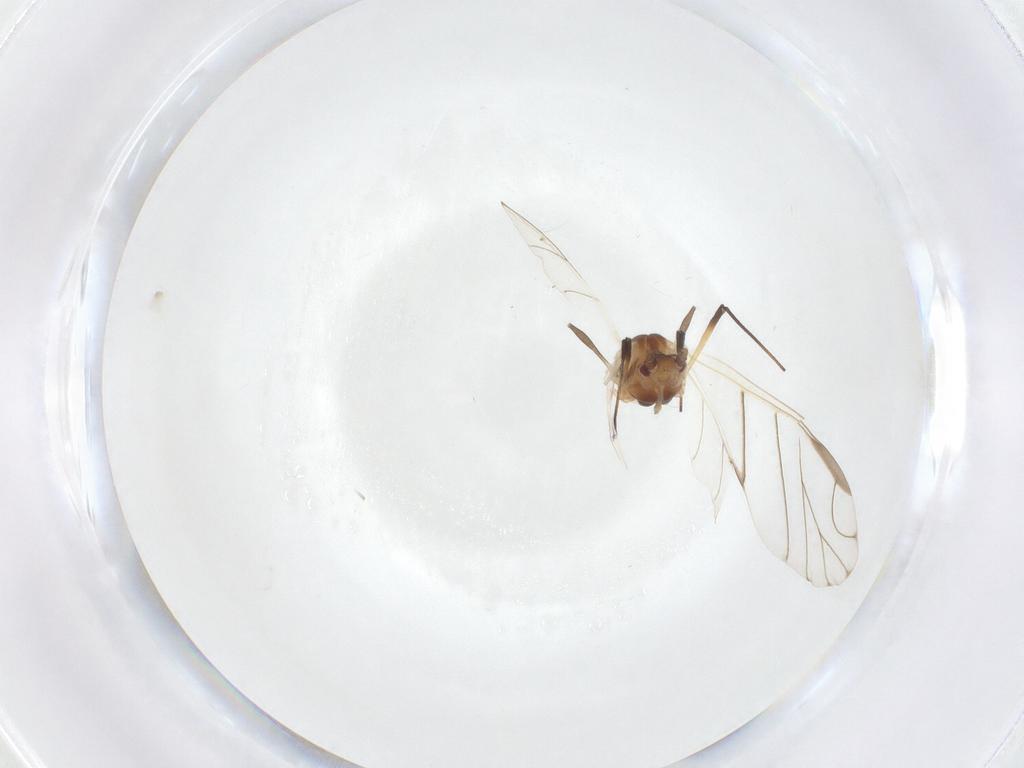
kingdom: Animalia
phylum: Arthropoda
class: Insecta
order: Hemiptera
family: Aphididae
